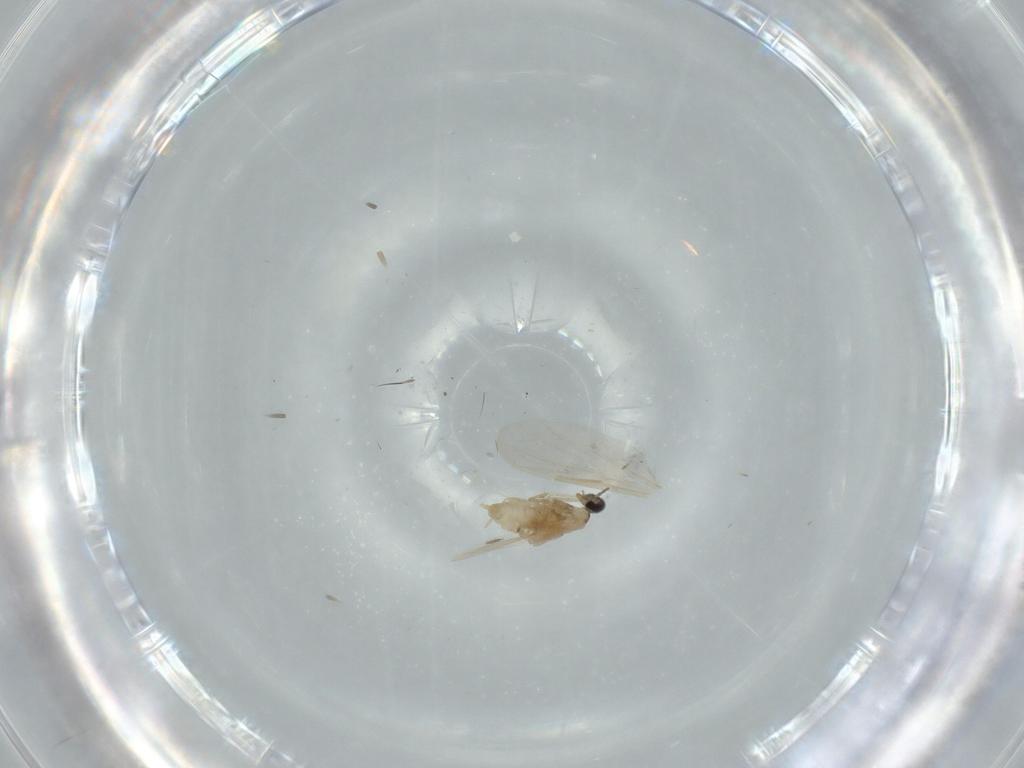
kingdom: Animalia
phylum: Arthropoda
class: Insecta
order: Diptera
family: Cecidomyiidae
